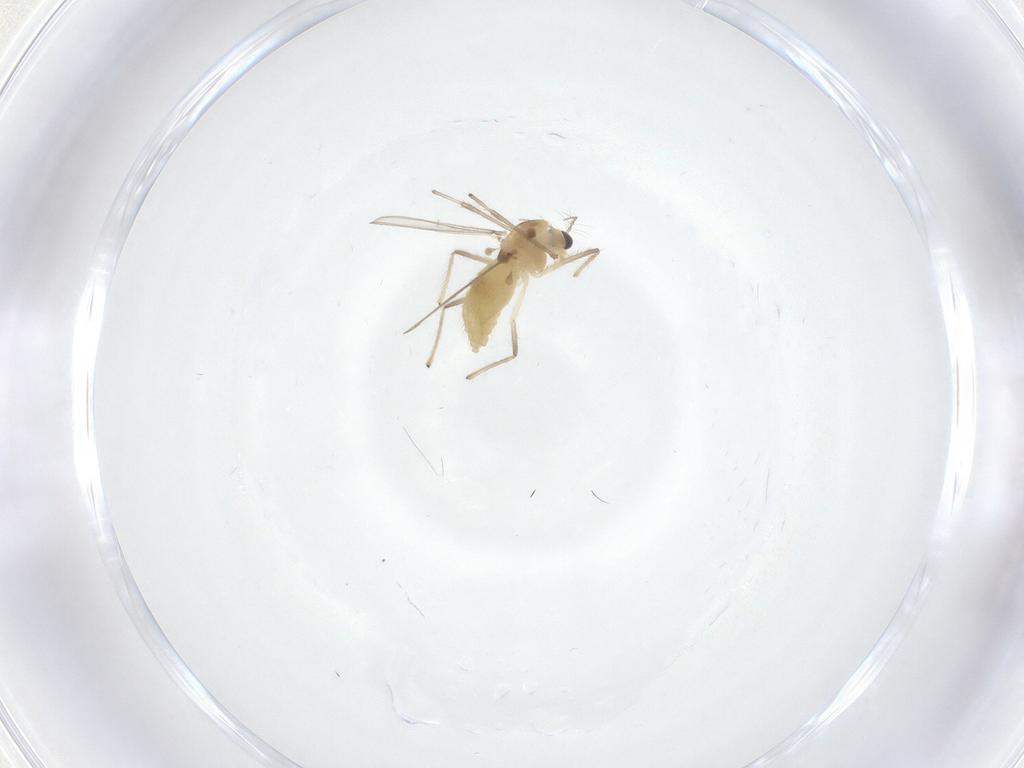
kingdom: Animalia
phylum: Arthropoda
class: Insecta
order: Diptera
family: Chironomidae
